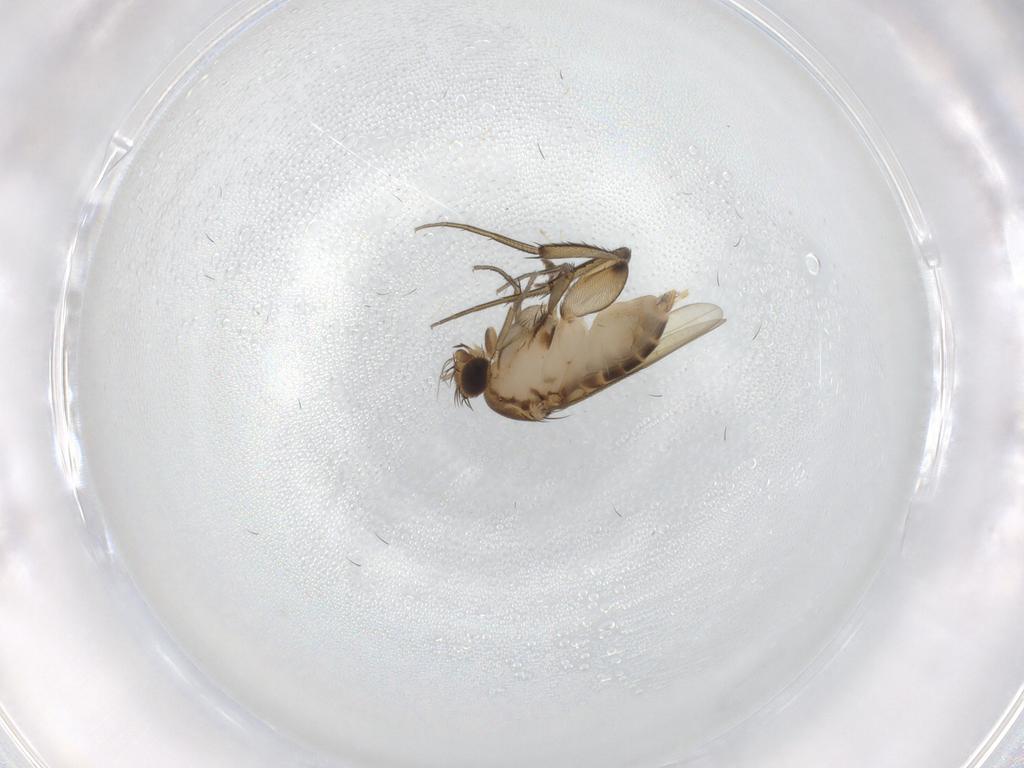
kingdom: Animalia
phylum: Arthropoda
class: Insecta
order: Diptera
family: Phoridae
